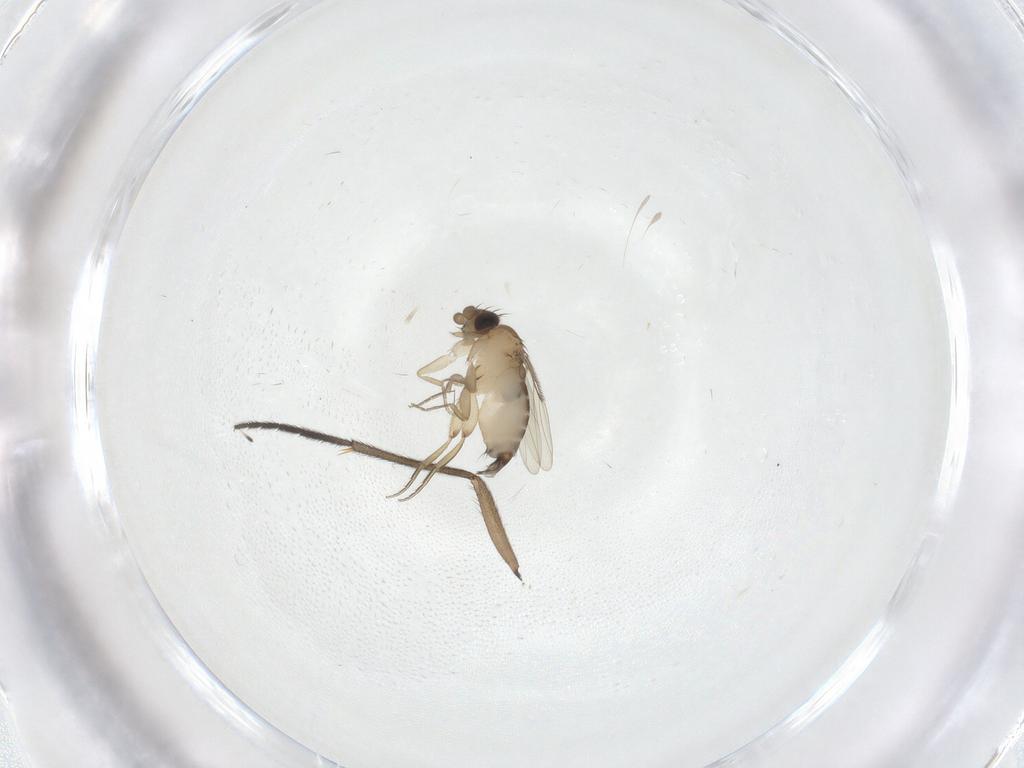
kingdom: Animalia
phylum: Arthropoda
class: Insecta
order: Diptera
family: Phoridae
